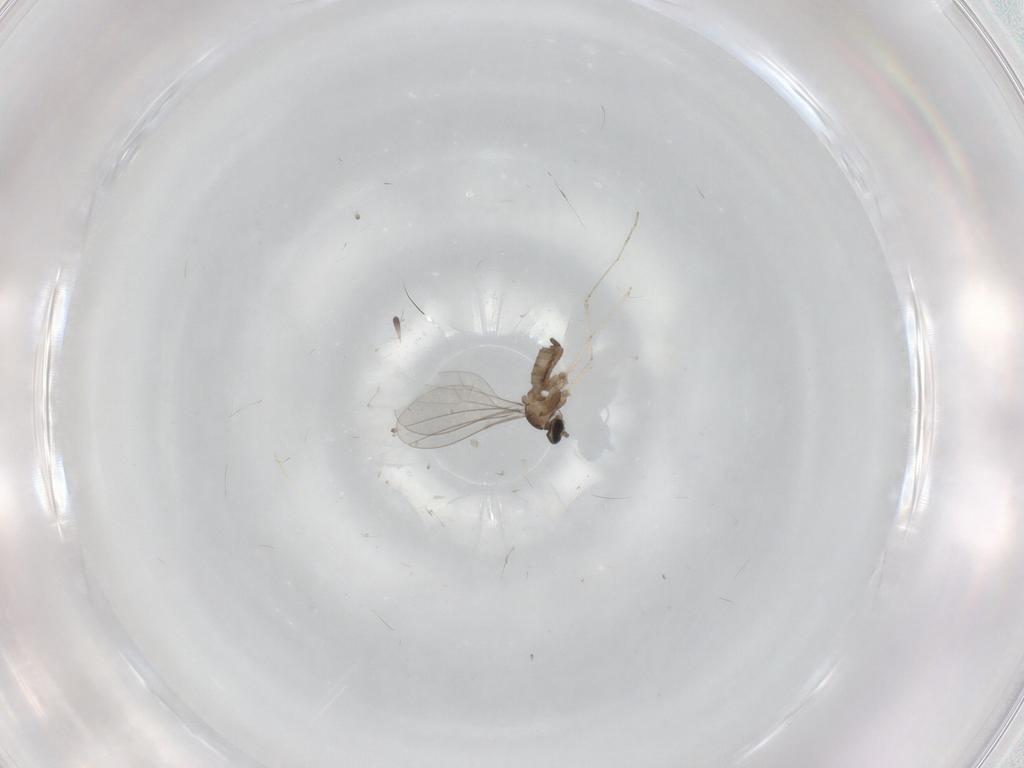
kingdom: Animalia
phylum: Arthropoda
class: Insecta
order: Diptera
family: Cecidomyiidae
